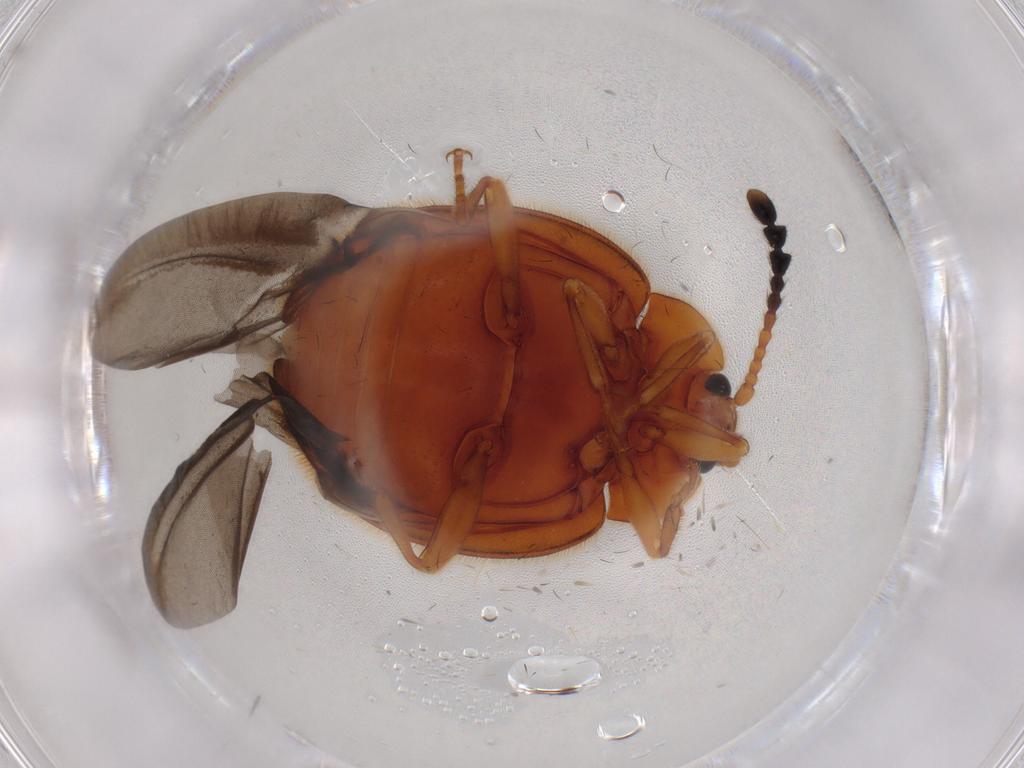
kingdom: Animalia
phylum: Arthropoda
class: Insecta
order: Coleoptera
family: Endomychidae
